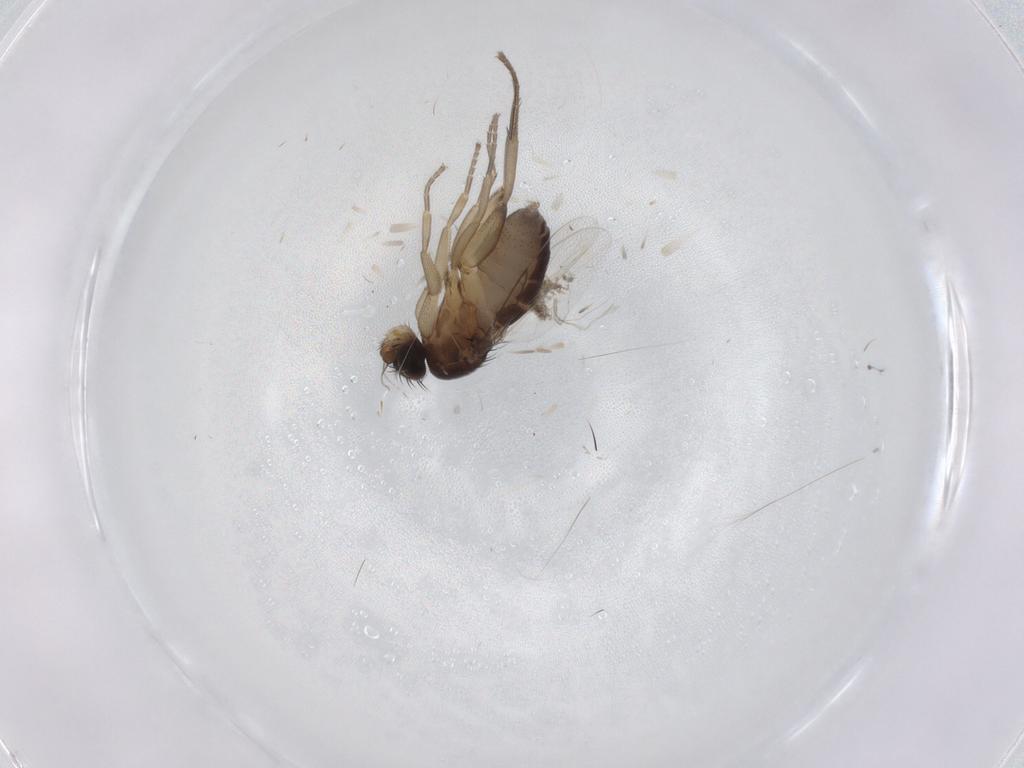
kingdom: Animalia
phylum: Arthropoda
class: Insecta
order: Diptera
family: Phoridae
